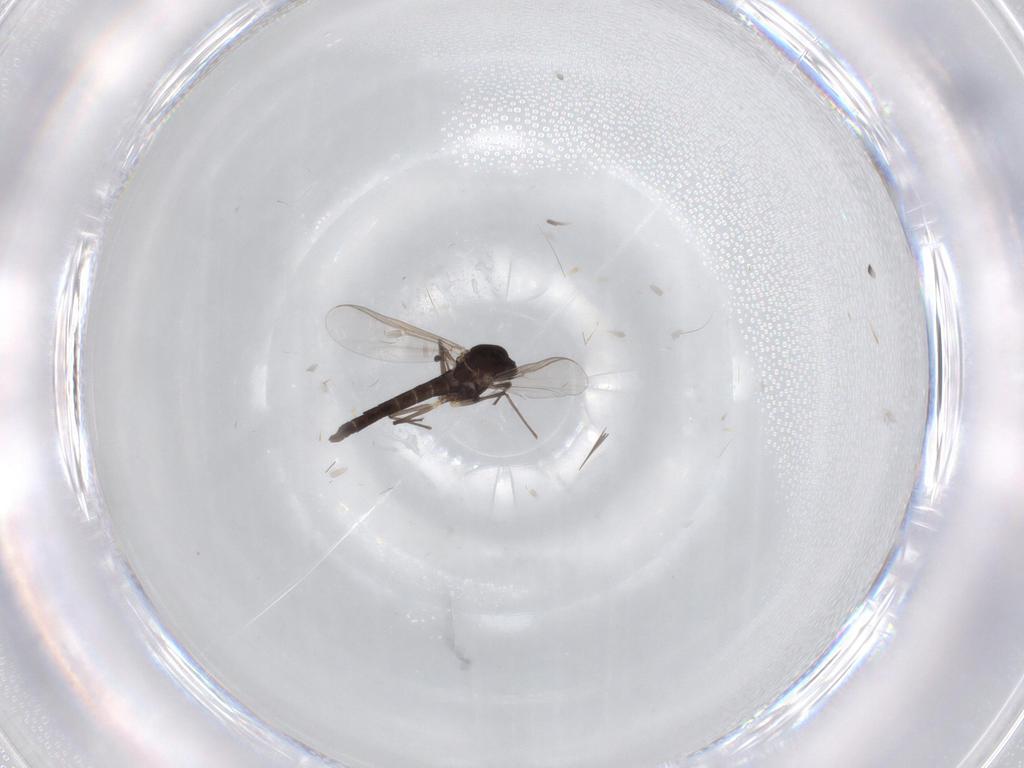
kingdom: Animalia
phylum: Arthropoda
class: Insecta
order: Diptera
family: Chironomidae
